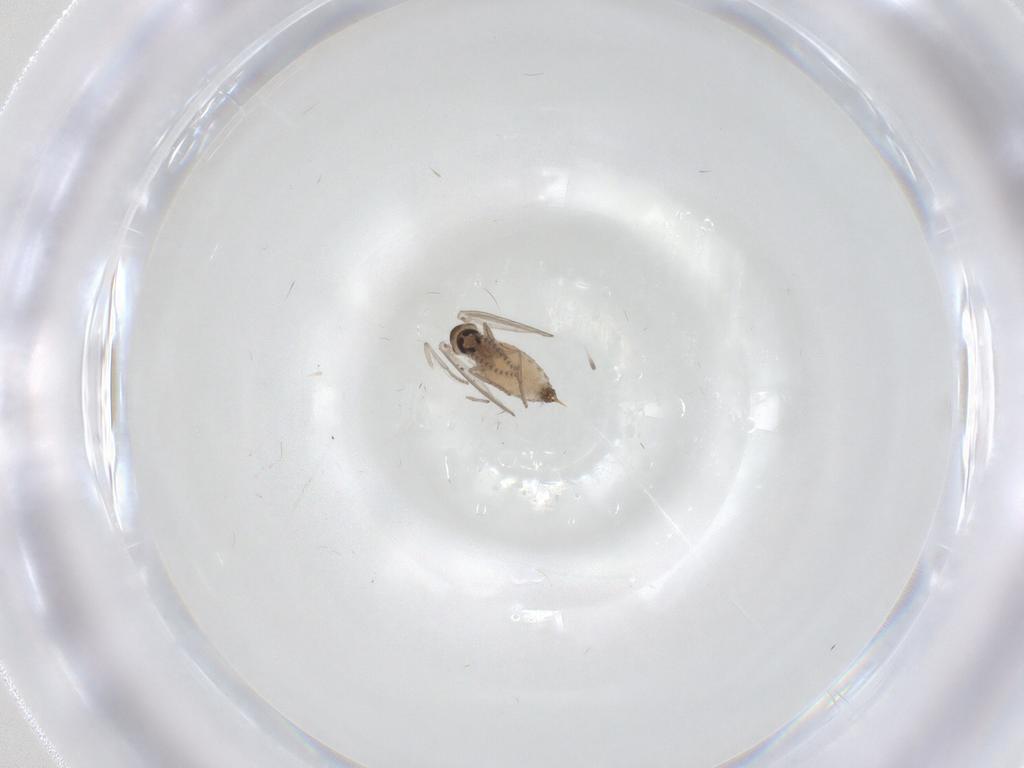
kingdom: Animalia
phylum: Arthropoda
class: Insecta
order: Diptera
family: Psychodidae
